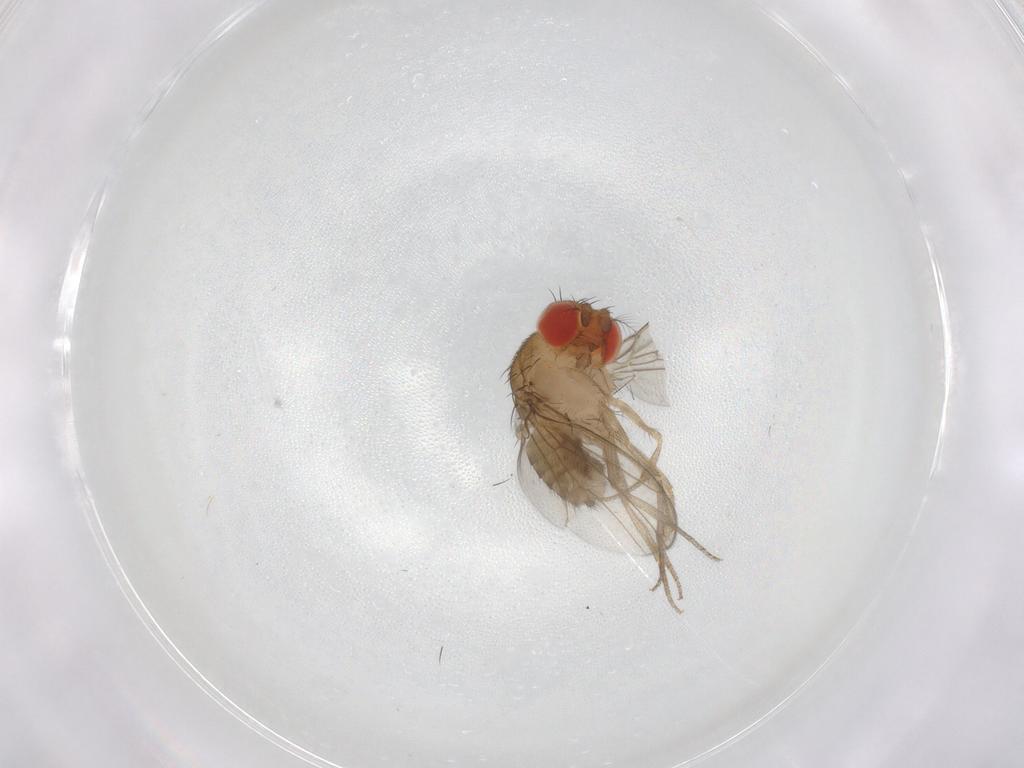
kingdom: Animalia
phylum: Arthropoda
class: Insecta
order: Diptera
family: Drosophilidae
